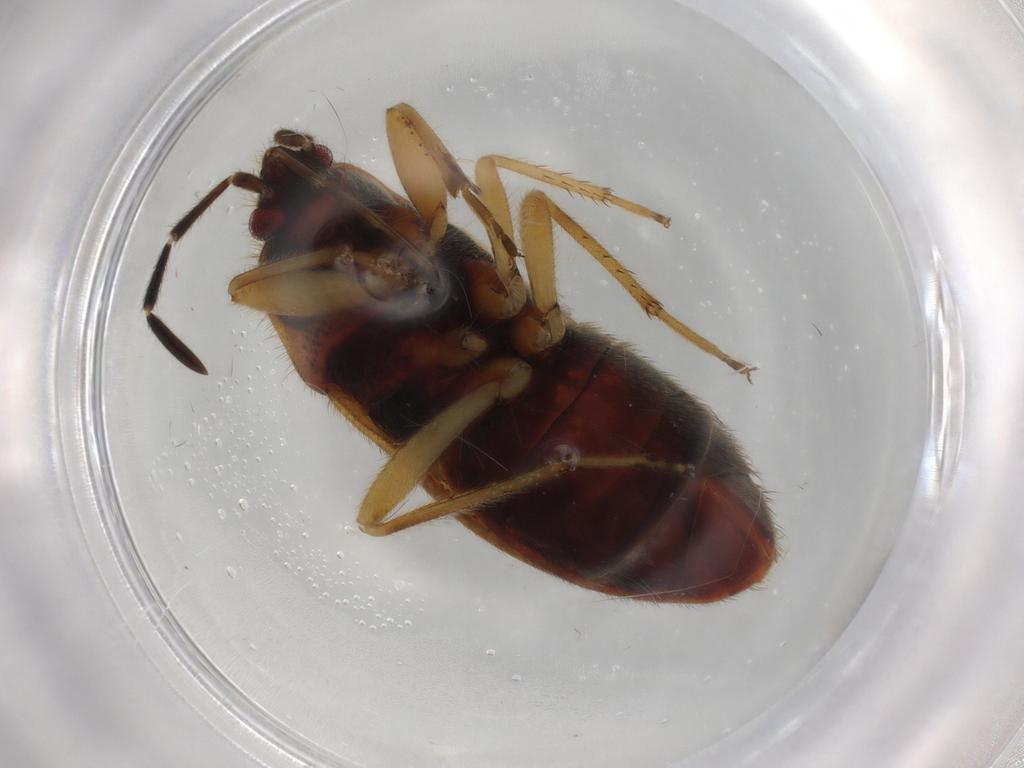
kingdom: Animalia
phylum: Arthropoda
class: Insecta
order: Hemiptera
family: Rhyparochromidae
